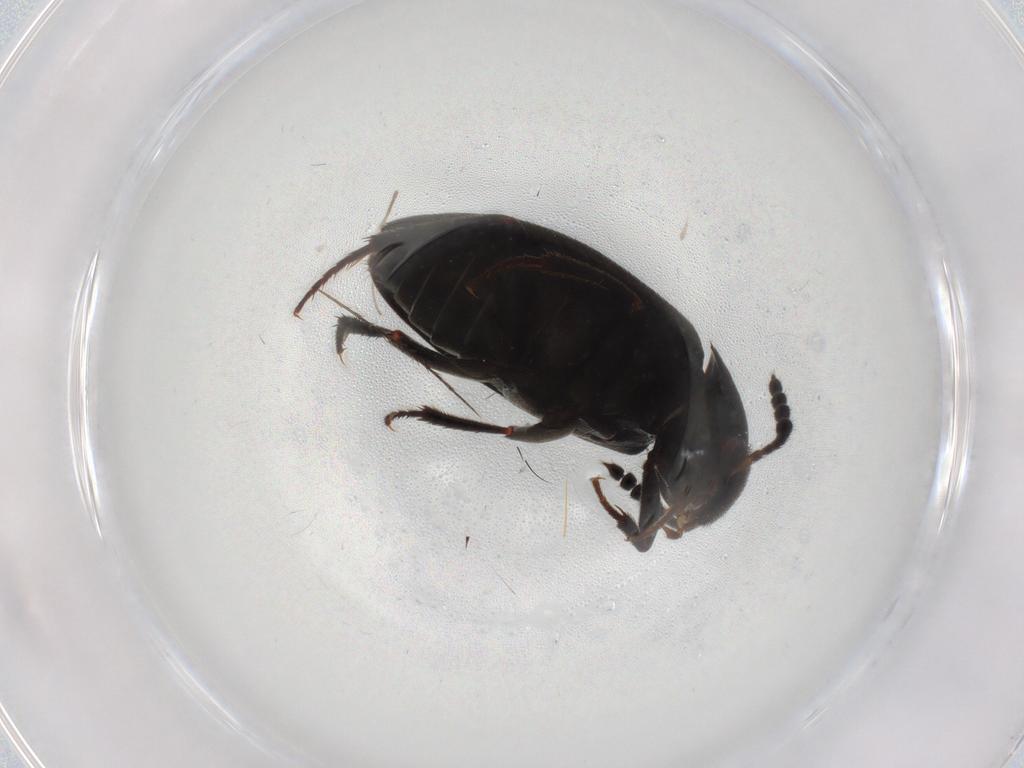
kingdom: Animalia
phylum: Arthropoda
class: Insecta
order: Coleoptera
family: Leiodidae
